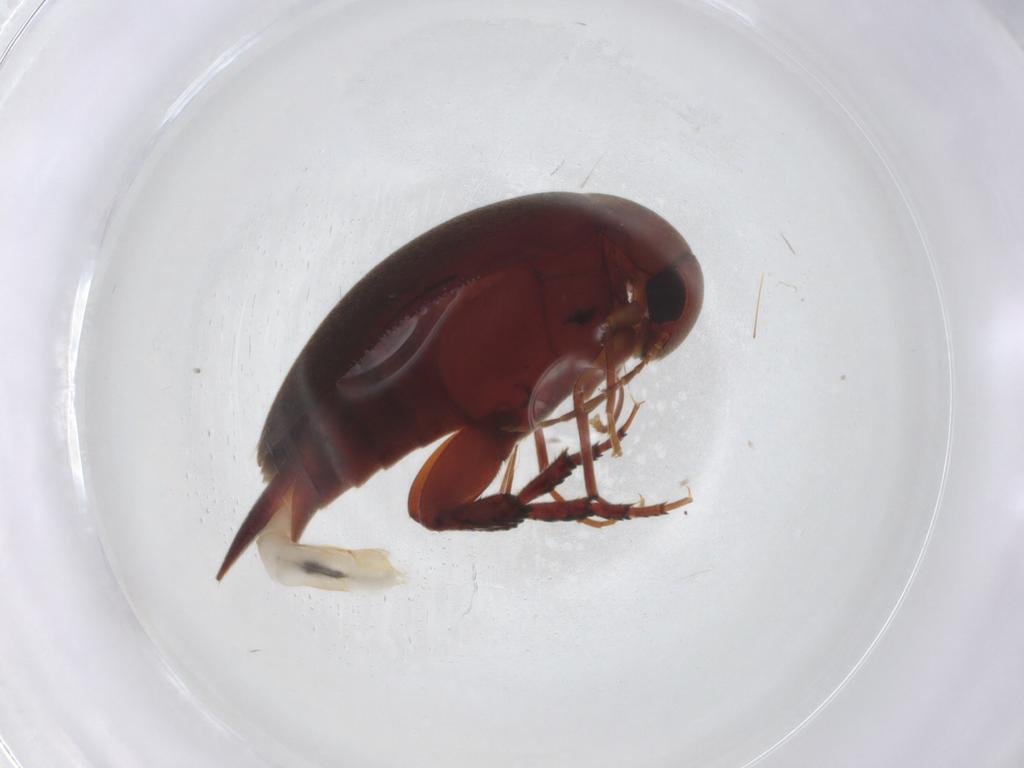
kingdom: Animalia
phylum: Arthropoda
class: Insecta
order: Coleoptera
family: Mordellidae
